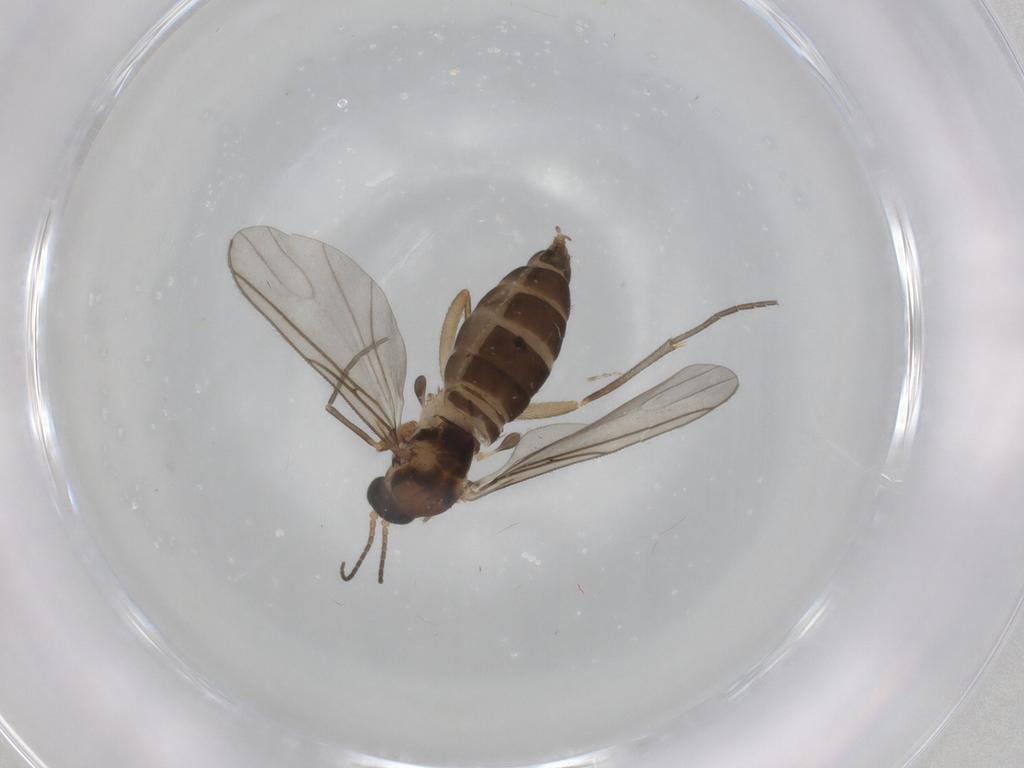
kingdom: Animalia
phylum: Arthropoda
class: Insecta
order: Diptera
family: Sciaridae
